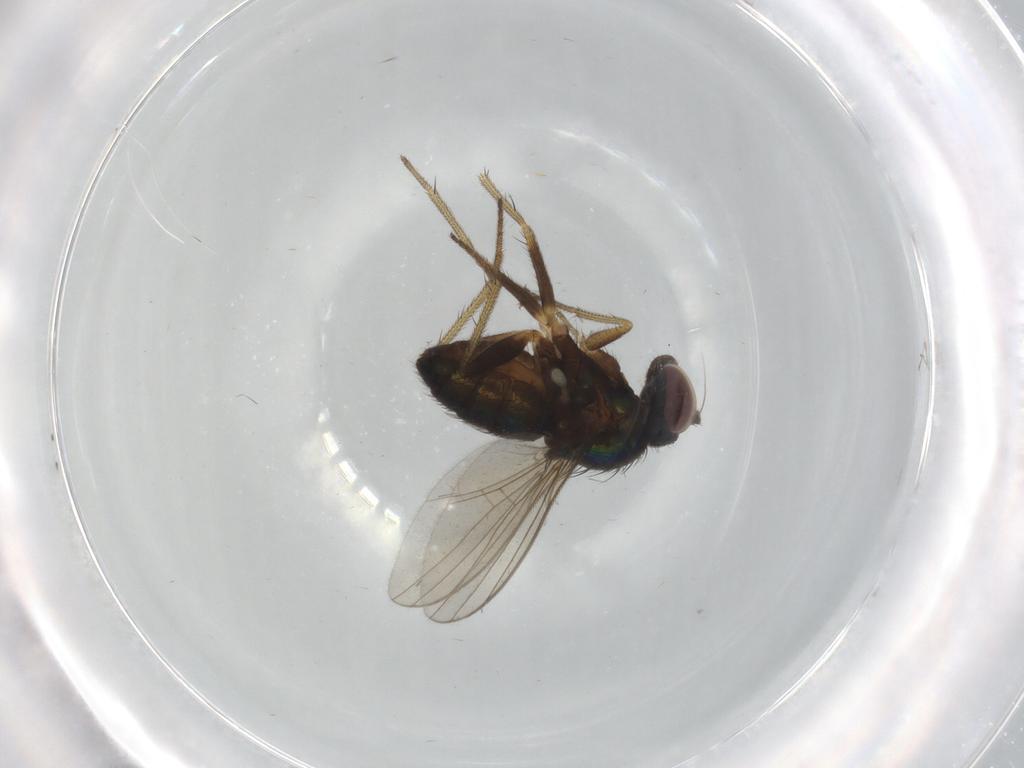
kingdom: Animalia
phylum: Arthropoda
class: Insecta
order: Diptera
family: Dolichopodidae
